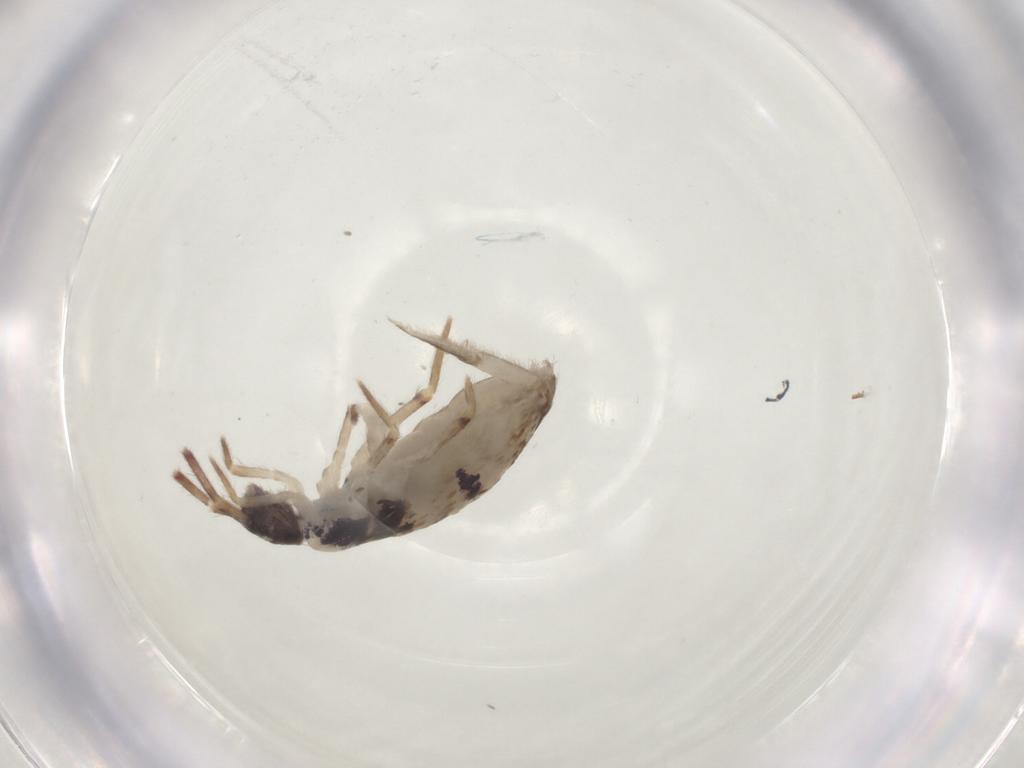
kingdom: Animalia
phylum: Arthropoda
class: Collembola
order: Entomobryomorpha
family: Entomobryidae
